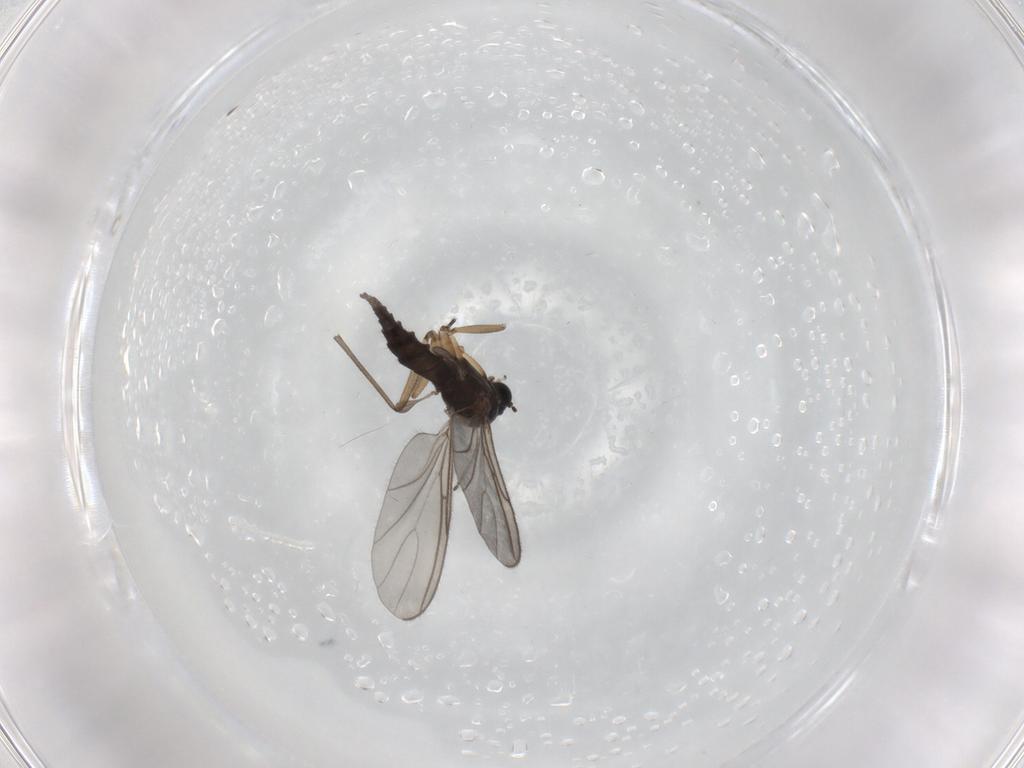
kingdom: Animalia
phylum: Arthropoda
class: Insecta
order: Diptera
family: Sciaridae
